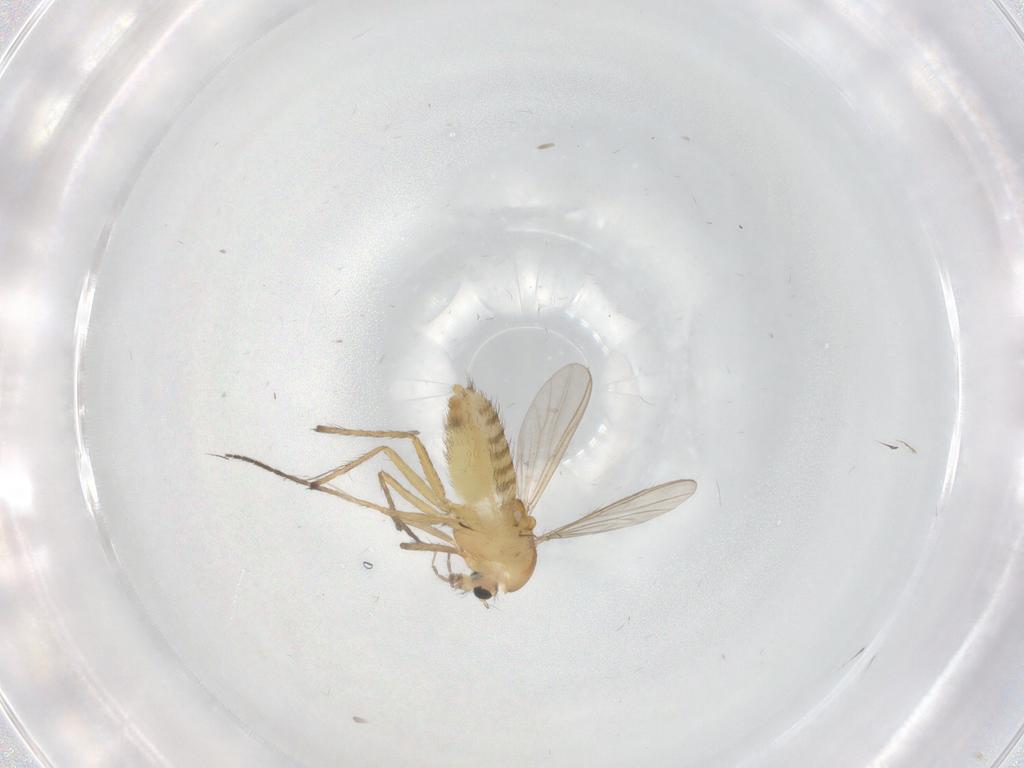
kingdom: Animalia
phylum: Arthropoda
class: Insecta
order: Diptera
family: Chironomidae
